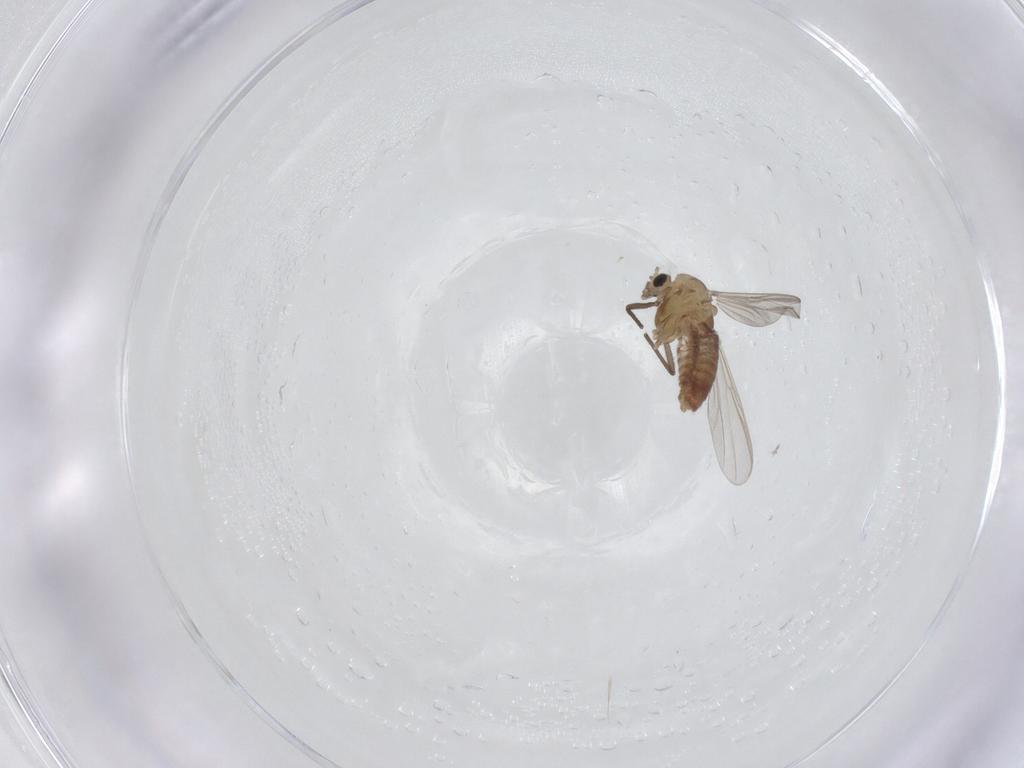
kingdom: Animalia
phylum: Arthropoda
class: Insecta
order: Diptera
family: Chironomidae
